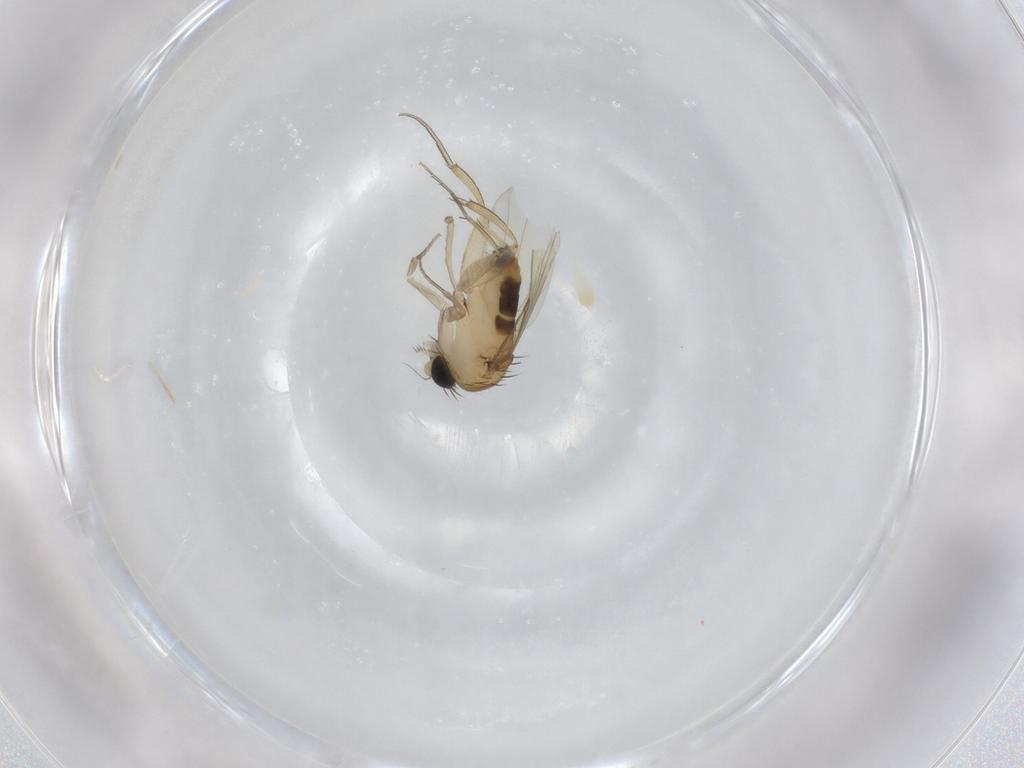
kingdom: Animalia
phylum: Arthropoda
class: Insecta
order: Diptera
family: Phoridae
